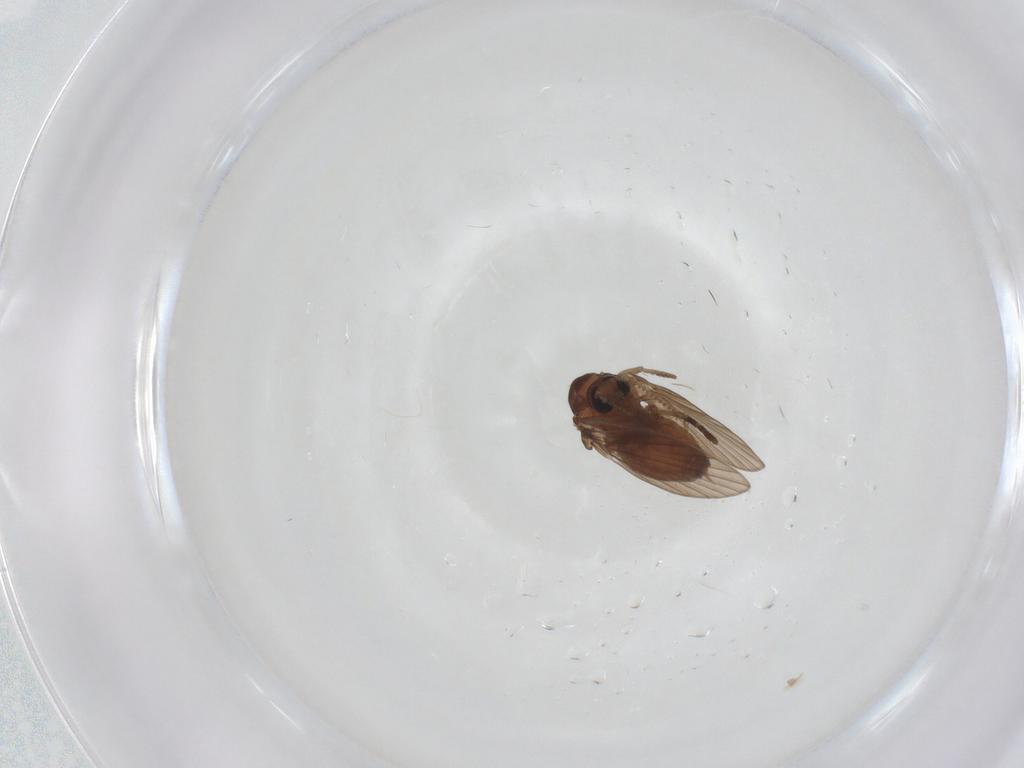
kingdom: Animalia
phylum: Arthropoda
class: Insecta
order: Diptera
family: Psychodidae
